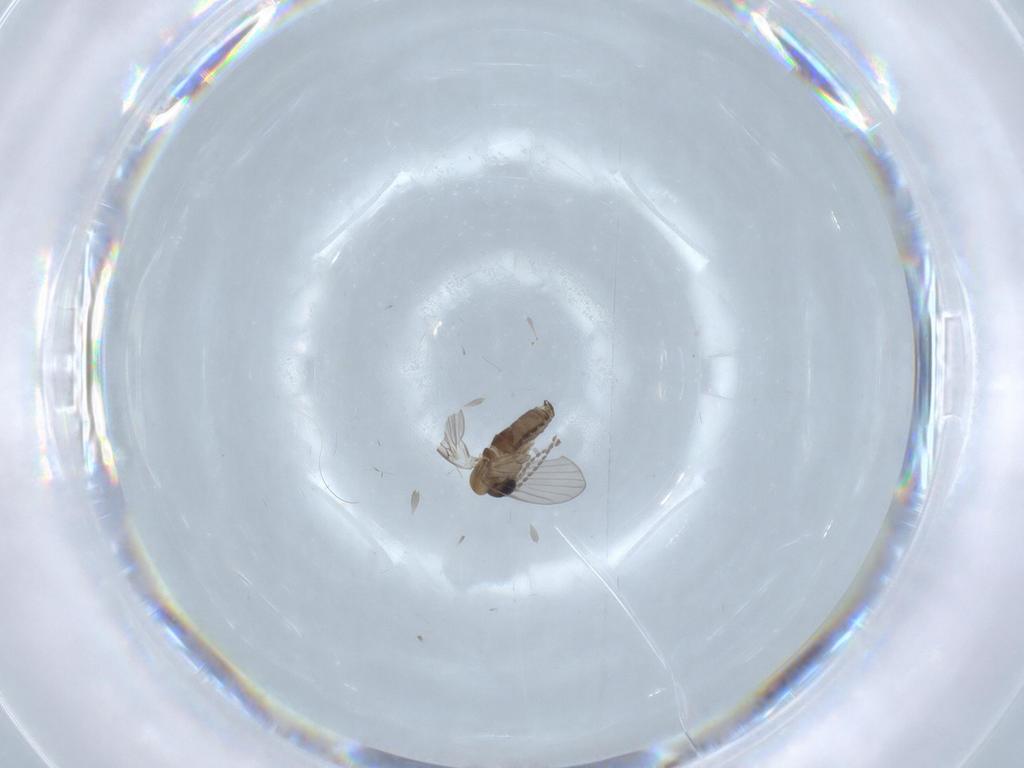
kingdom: Animalia
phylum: Arthropoda
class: Insecta
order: Diptera
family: Psychodidae
